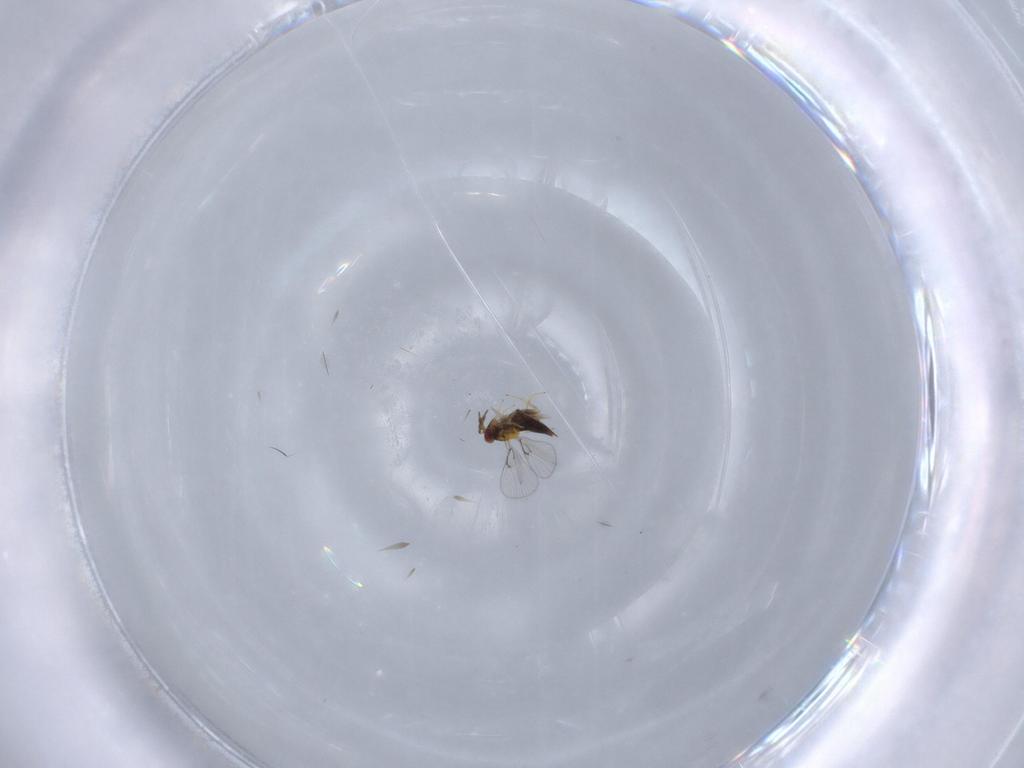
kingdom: Animalia
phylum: Arthropoda
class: Insecta
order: Hymenoptera
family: Trichogrammatidae
